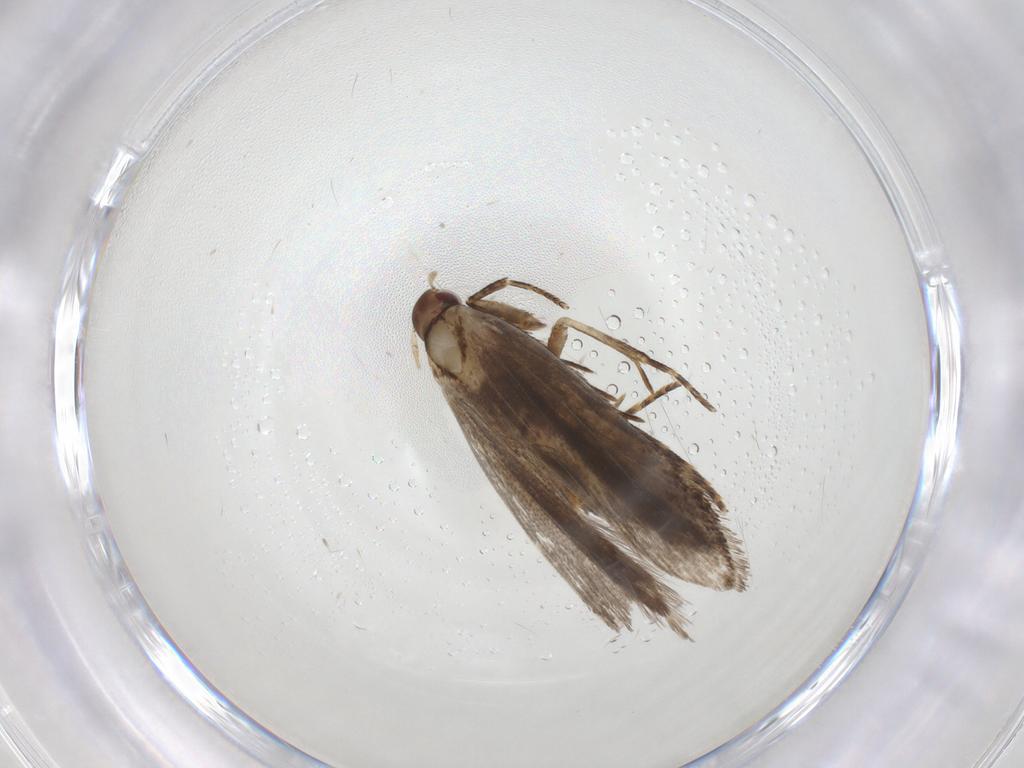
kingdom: Animalia
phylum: Arthropoda
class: Insecta
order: Lepidoptera
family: Gelechiidae
